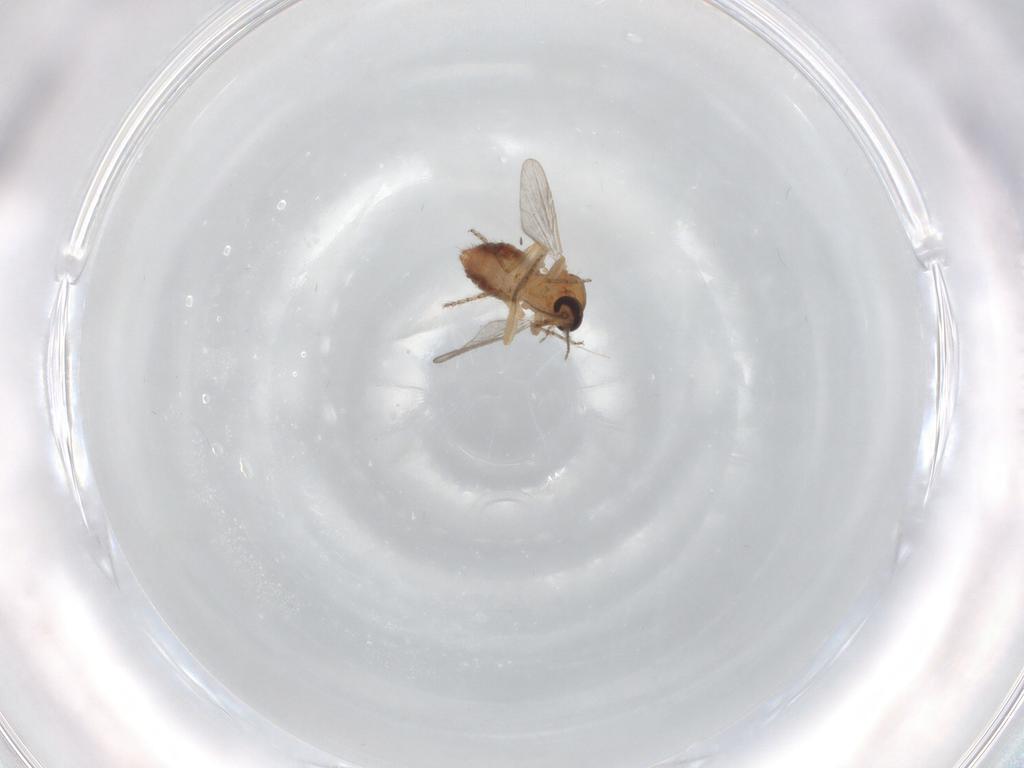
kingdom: Animalia
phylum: Arthropoda
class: Insecta
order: Diptera
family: Ceratopogonidae
